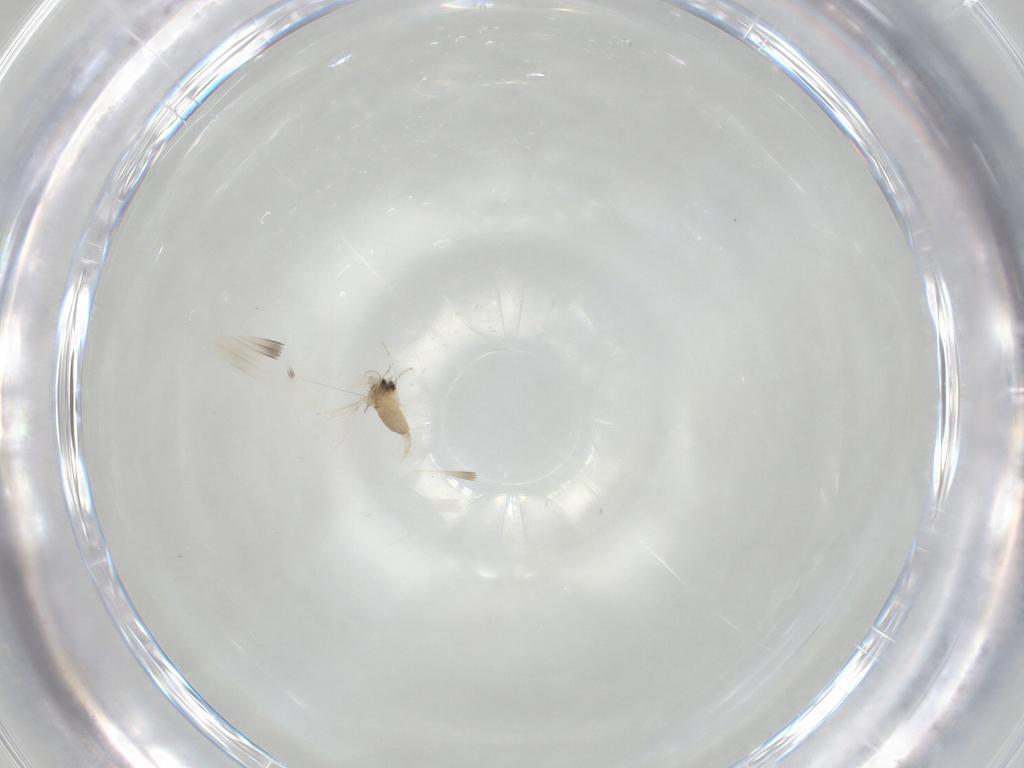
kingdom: Animalia
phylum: Arthropoda
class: Insecta
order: Diptera
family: Cecidomyiidae
